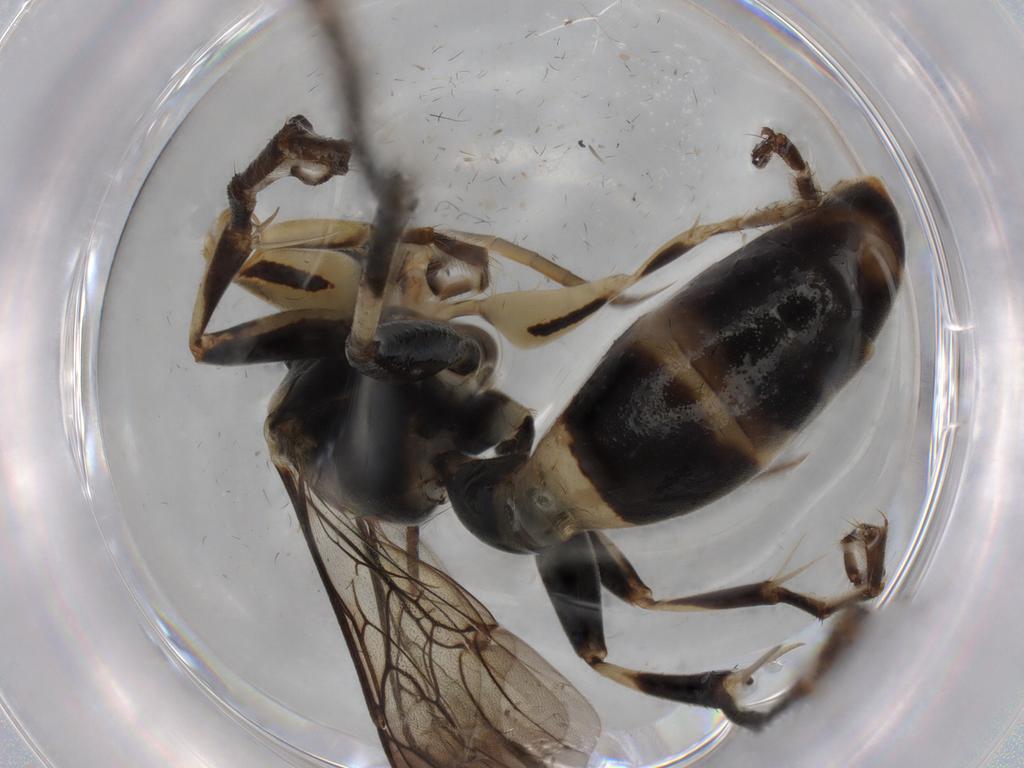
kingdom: Animalia
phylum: Arthropoda
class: Insecta
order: Hymenoptera
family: Rhopalosomatidae
